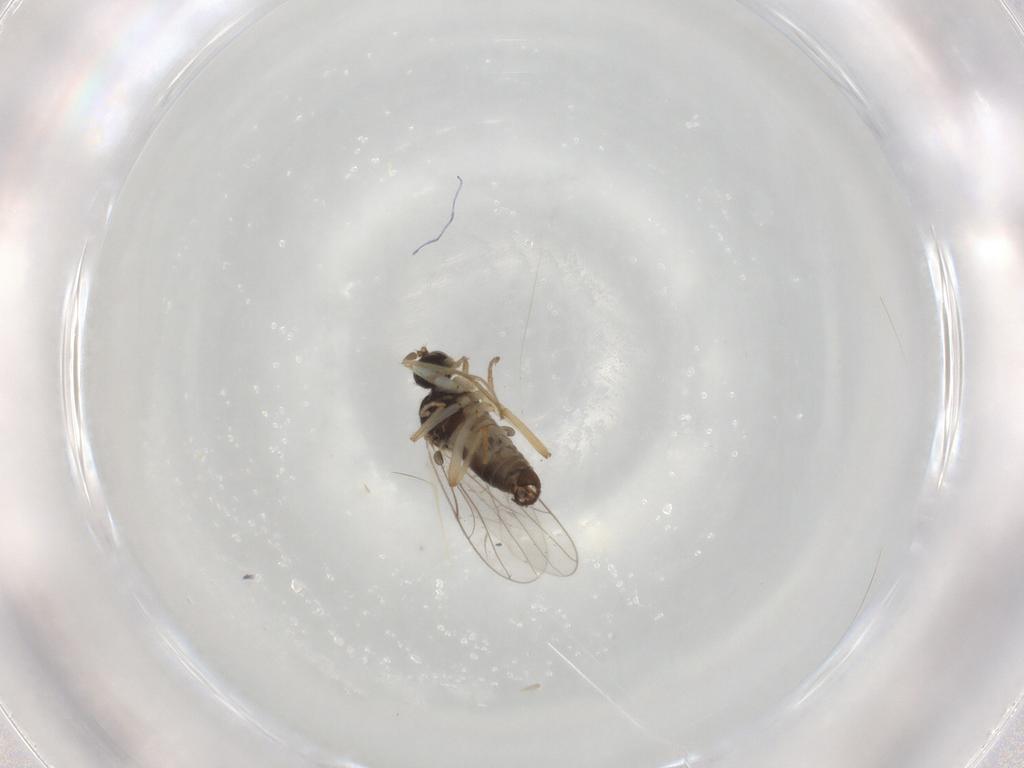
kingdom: Animalia
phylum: Arthropoda
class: Insecta
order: Diptera
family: Hybotidae
